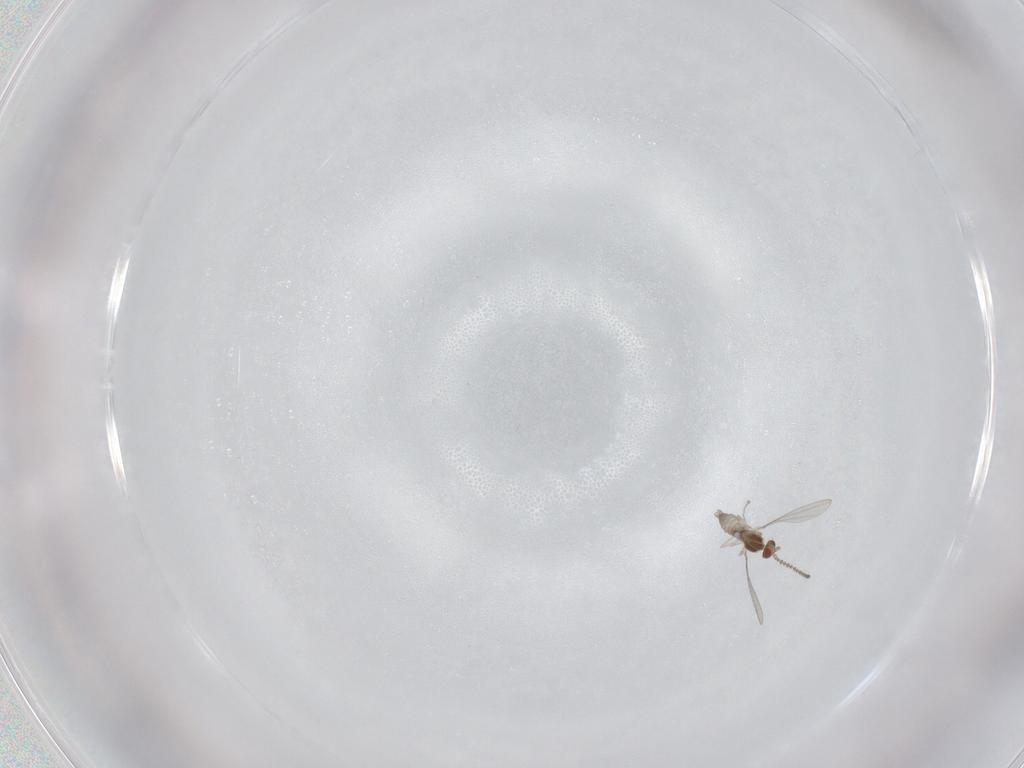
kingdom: Animalia
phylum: Arthropoda
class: Insecta
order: Diptera
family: Cecidomyiidae
